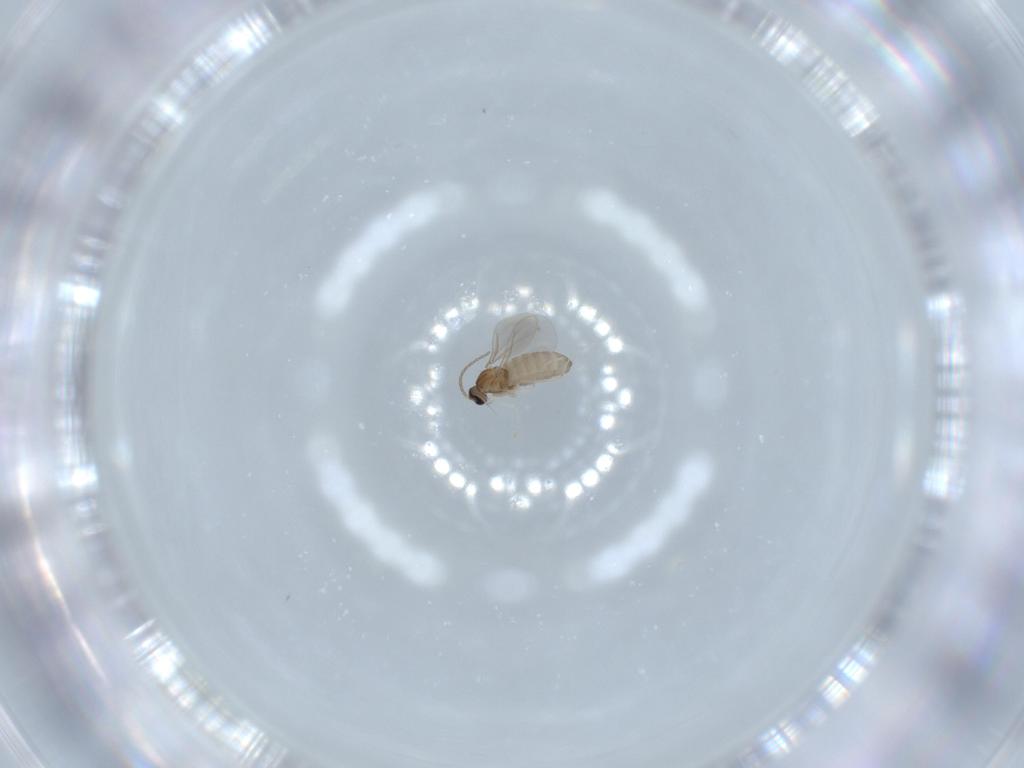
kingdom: Animalia
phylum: Arthropoda
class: Insecta
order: Diptera
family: Cecidomyiidae
